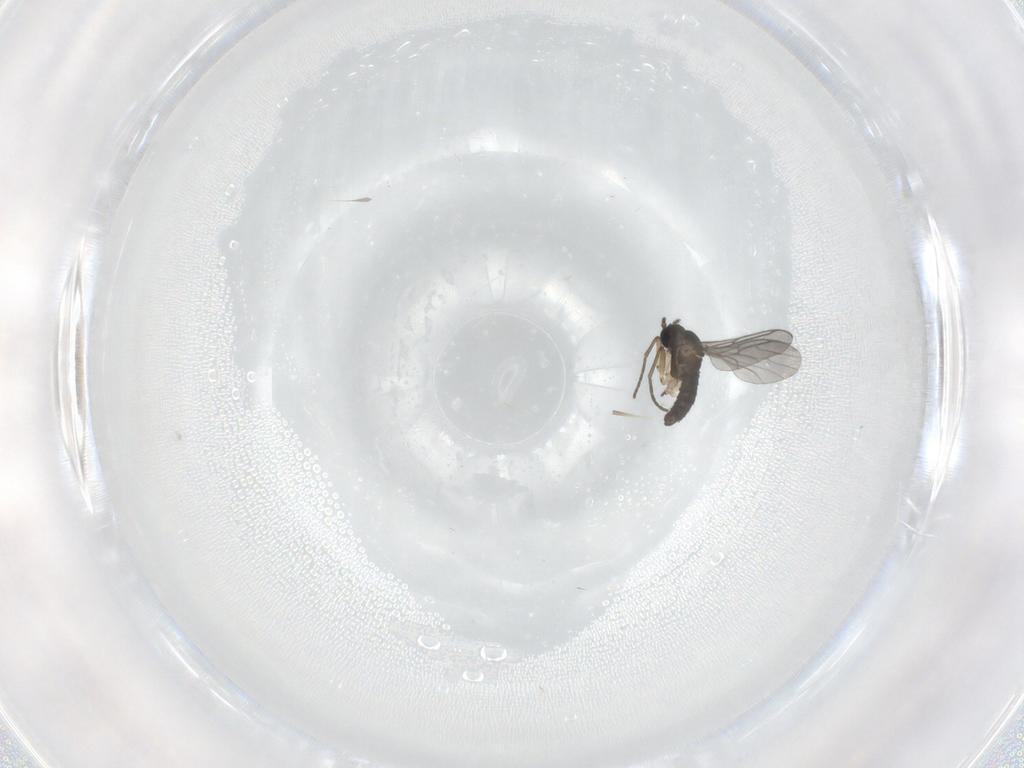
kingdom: Animalia
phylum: Arthropoda
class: Insecta
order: Diptera
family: Sciaridae
